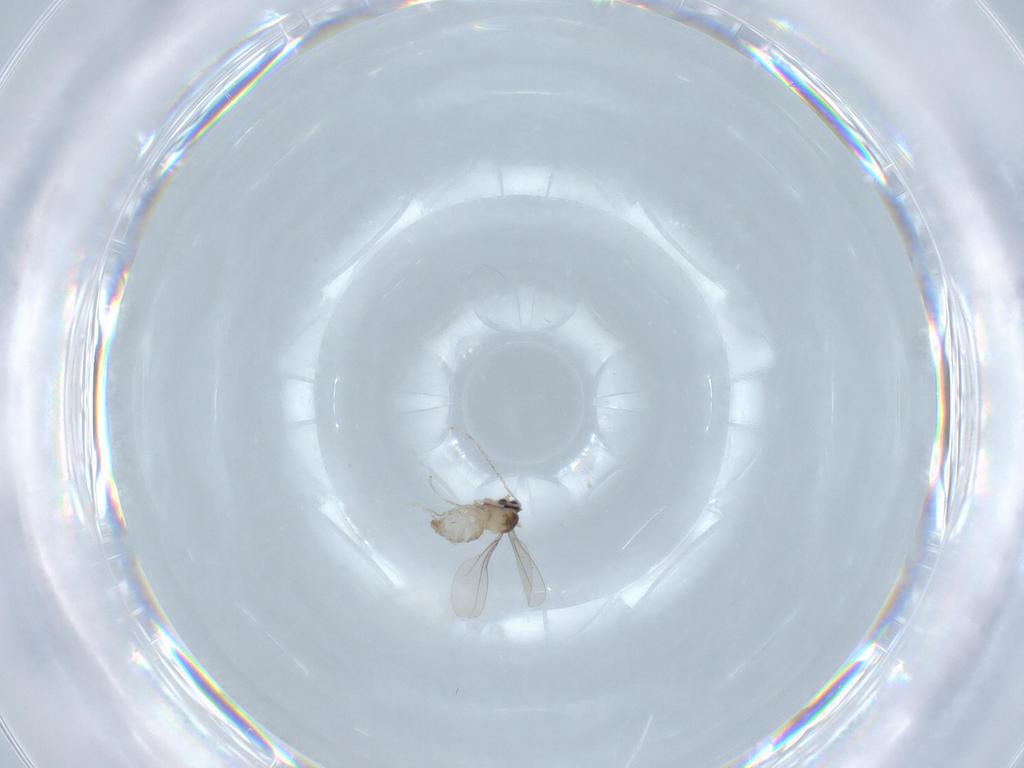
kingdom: Animalia
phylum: Arthropoda
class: Insecta
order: Diptera
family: Cecidomyiidae
